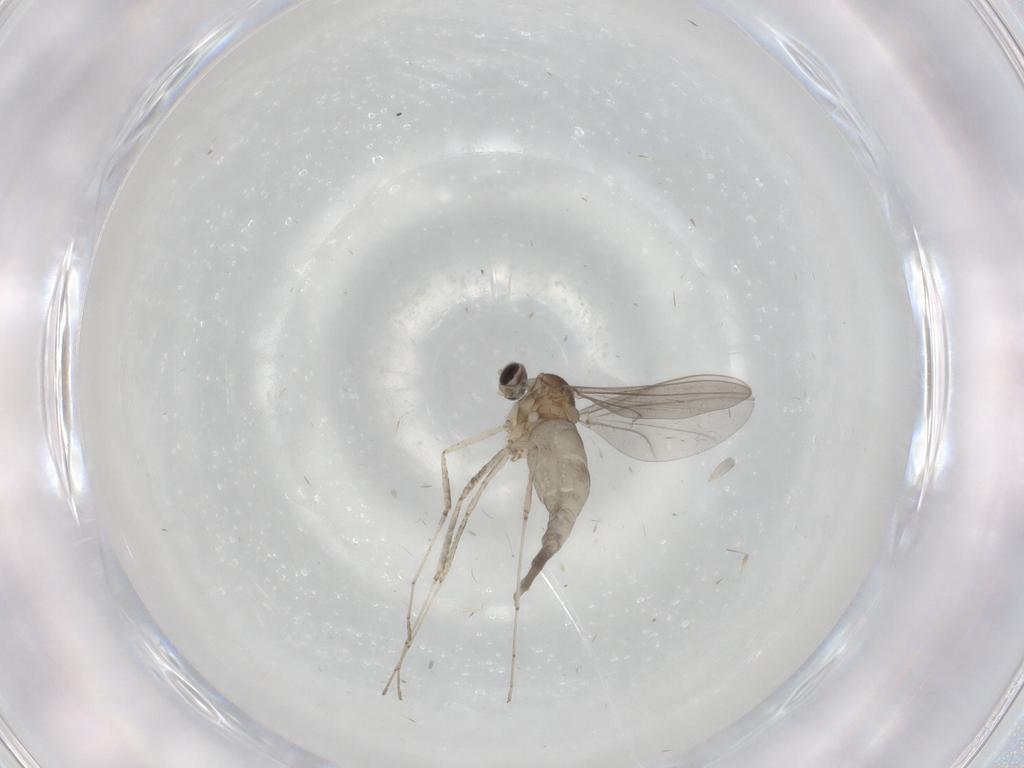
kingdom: Animalia
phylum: Arthropoda
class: Insecta
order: Diptera
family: Cecidomyiidae
